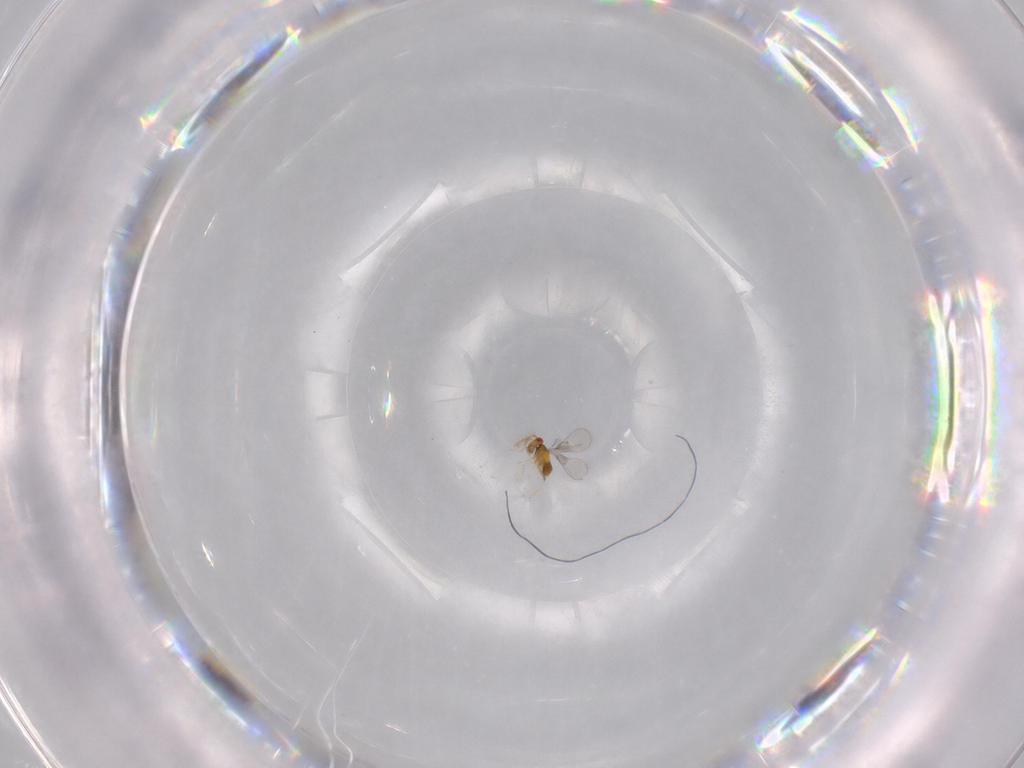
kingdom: Animalia
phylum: Arthropoda
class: Insecta
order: Hymenoptera
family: Trichogrammatidae
